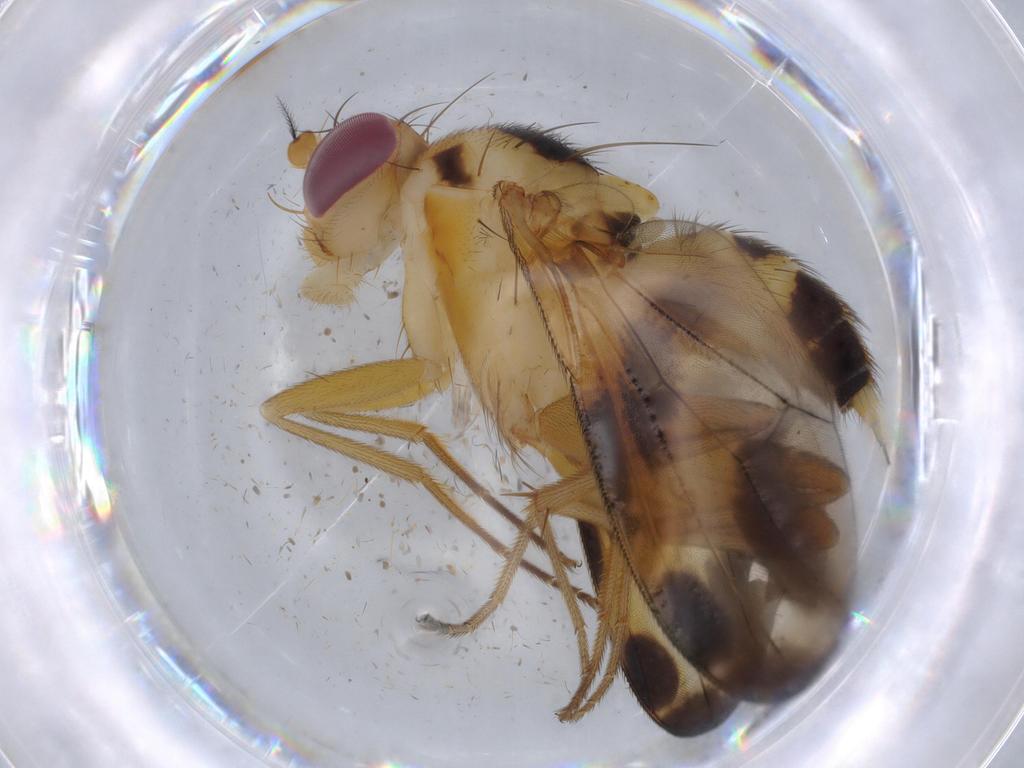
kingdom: Animalia
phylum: Arthropoda
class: Insecta
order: Diptera
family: Clusiidae
